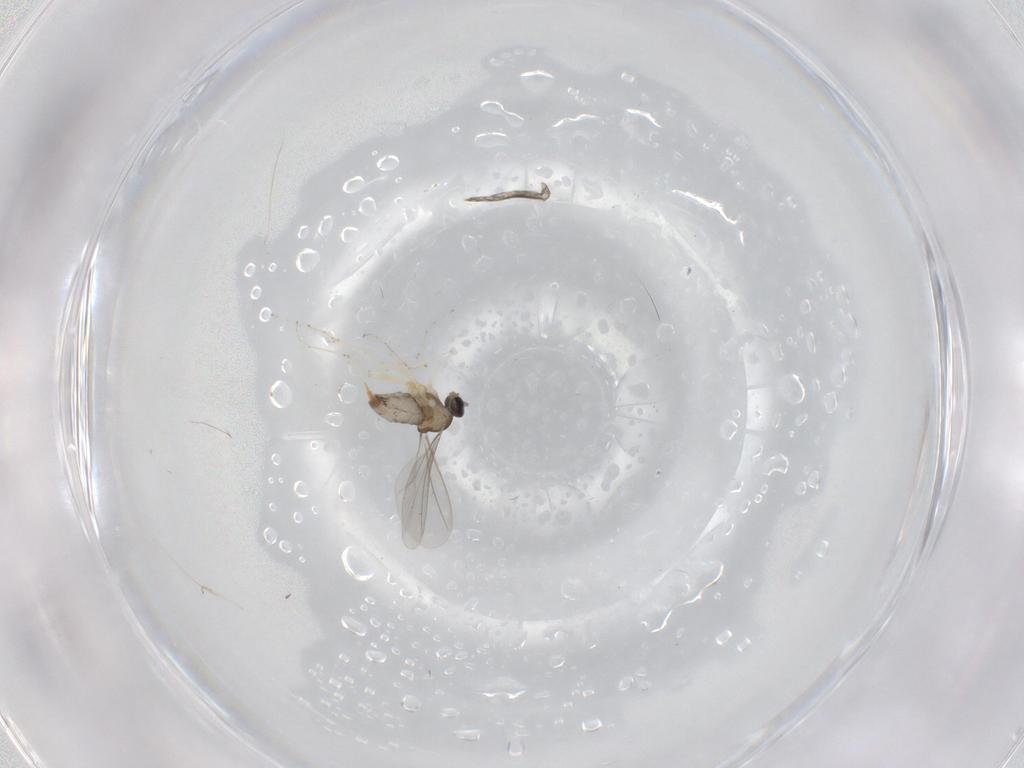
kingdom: Animalia
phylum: Arthropoda
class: Insecta
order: Diptera
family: Cecidomyiidae
